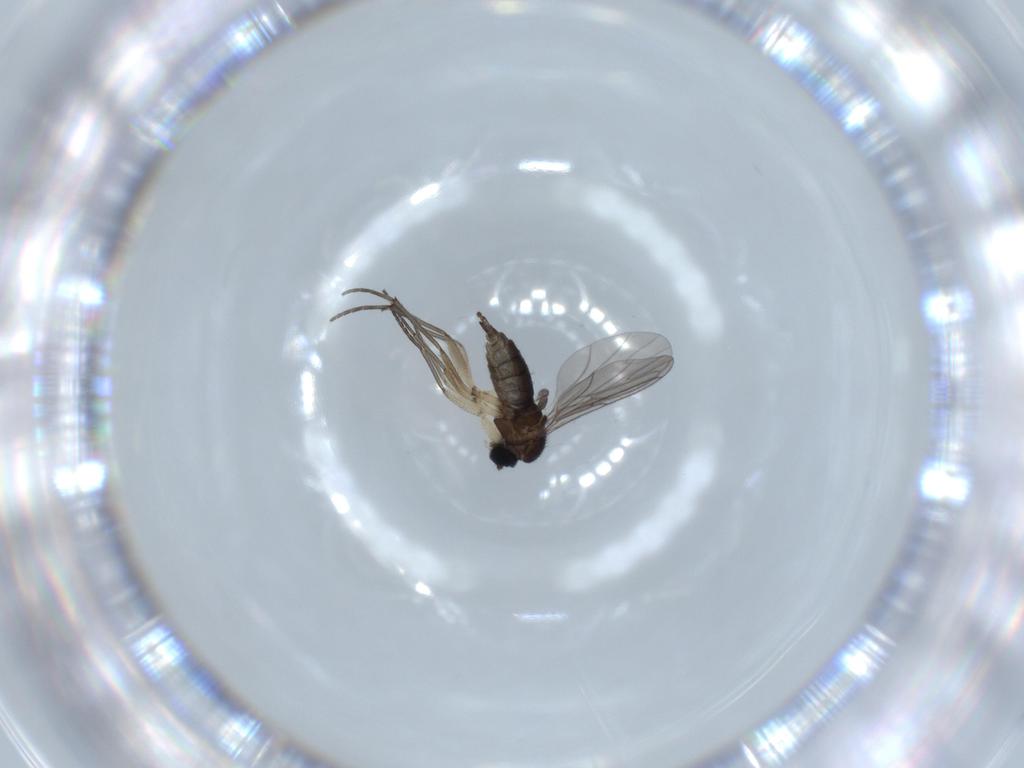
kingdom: Animalia
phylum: Arthropoda
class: Insecta
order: Diptera
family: Sciaridae
